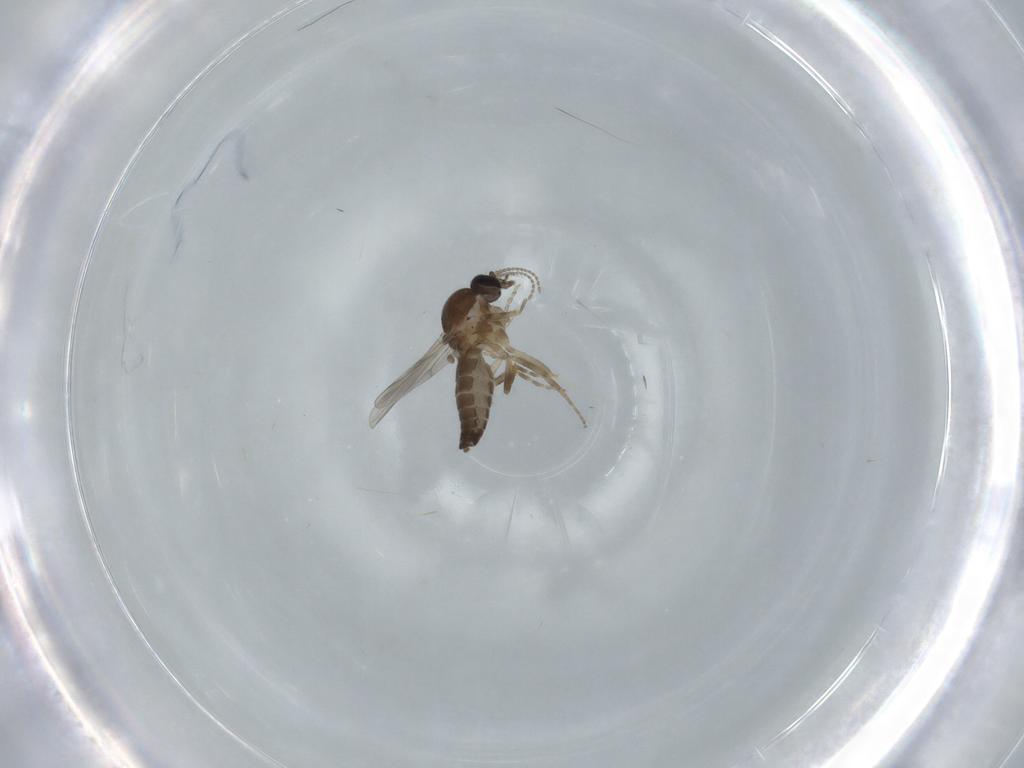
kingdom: Animalia
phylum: Arthropoda
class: Insecta
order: Diptera
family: Ceratopogonidae
